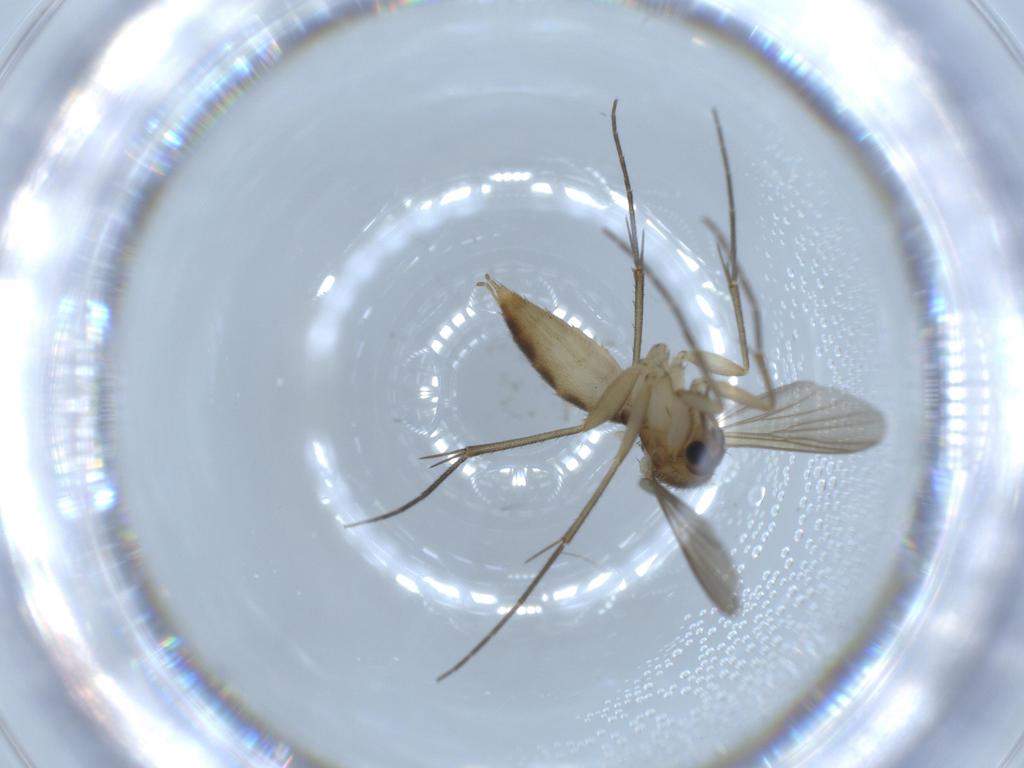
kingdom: Animalia
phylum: Arthropoda
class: Insecta
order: Diptera
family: Mycetophilidae
